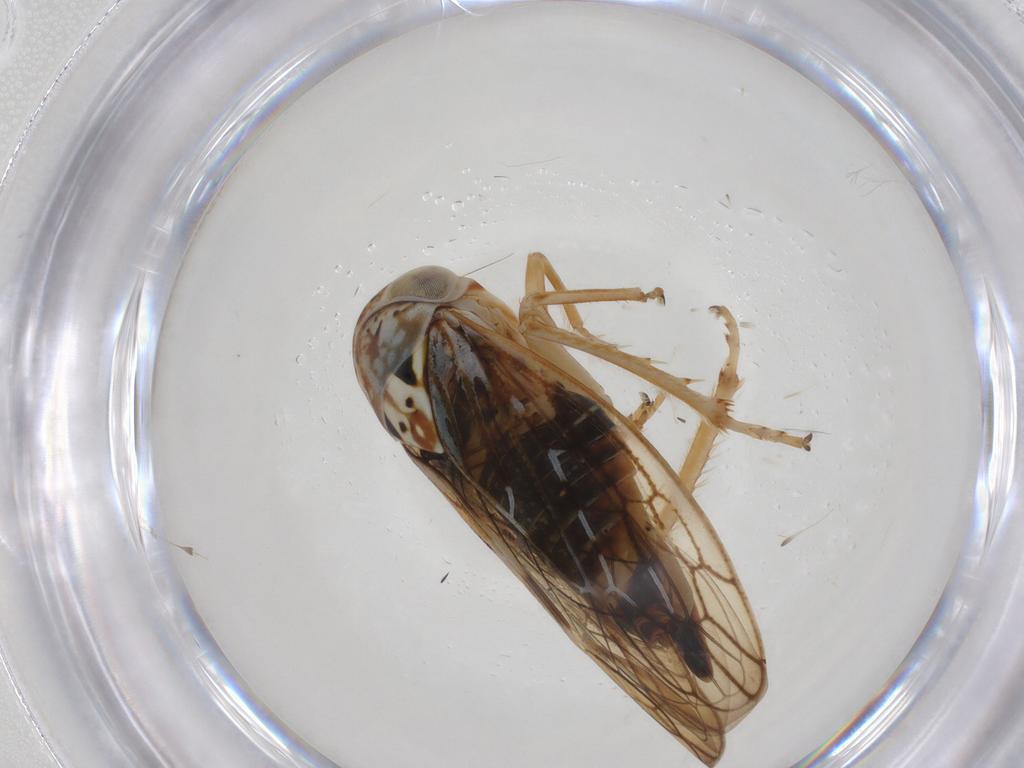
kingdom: Animalia
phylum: Arthropoda
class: Insecta
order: Hemiptera
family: Cicadellidae
